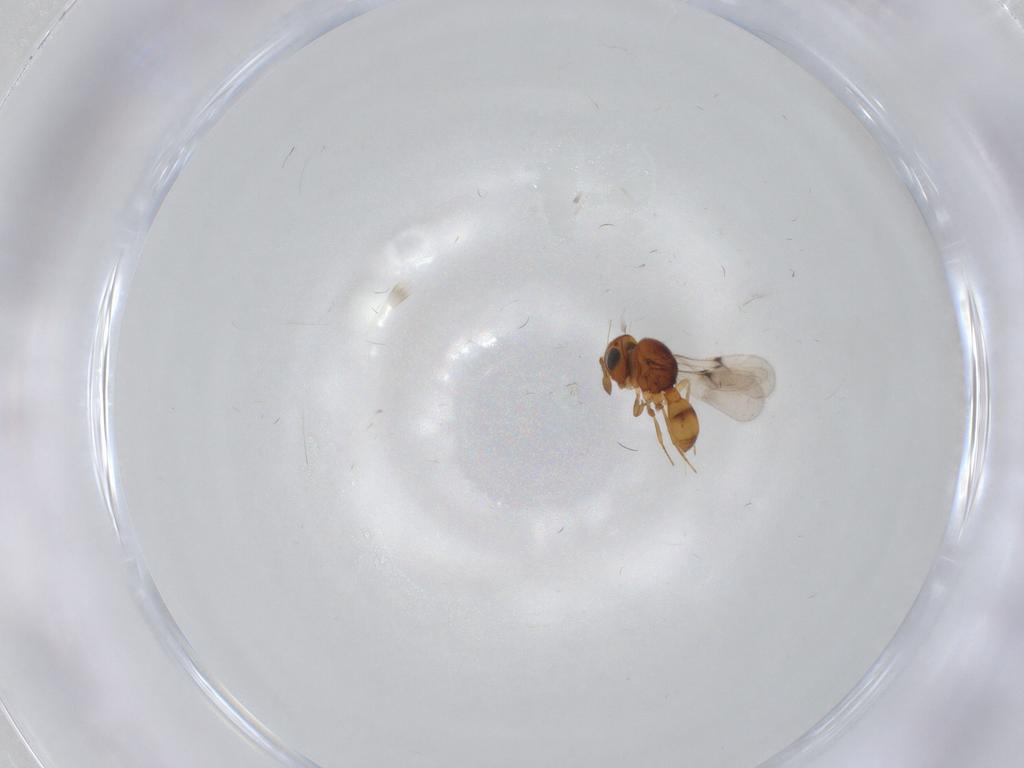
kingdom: Animalia
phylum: Arthropoda
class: Insecta
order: Hymenoptera
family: Scelionidae
